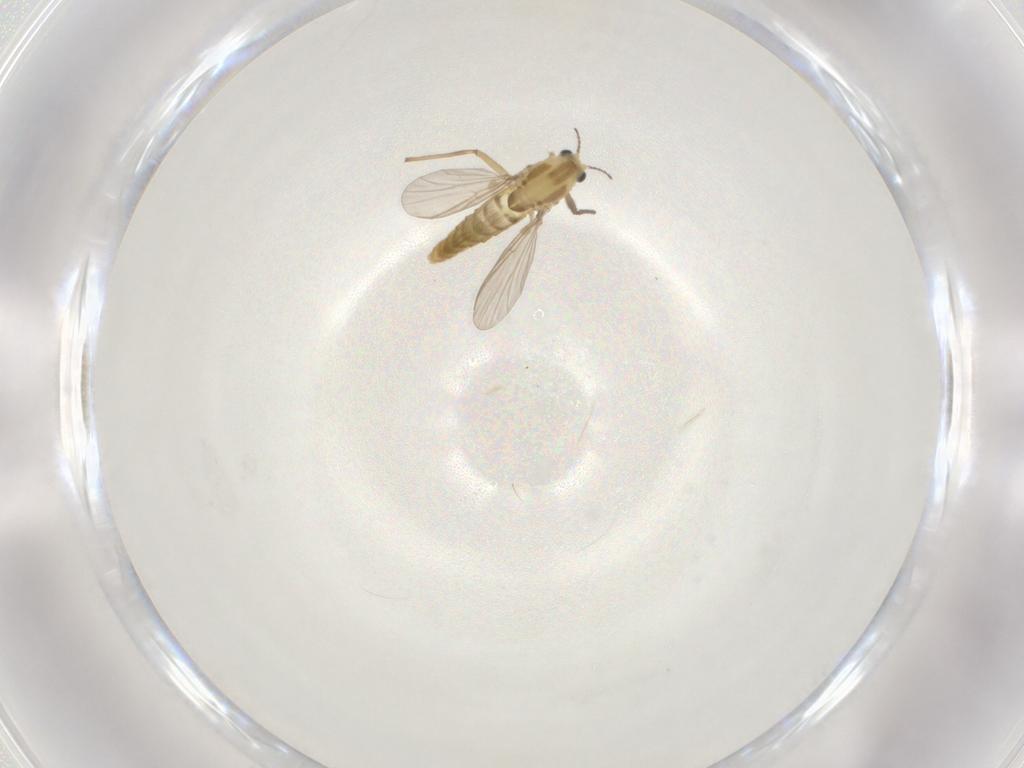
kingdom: Animalia
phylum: Arthropoda
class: Insecta
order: Diptera
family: Chironomidae
